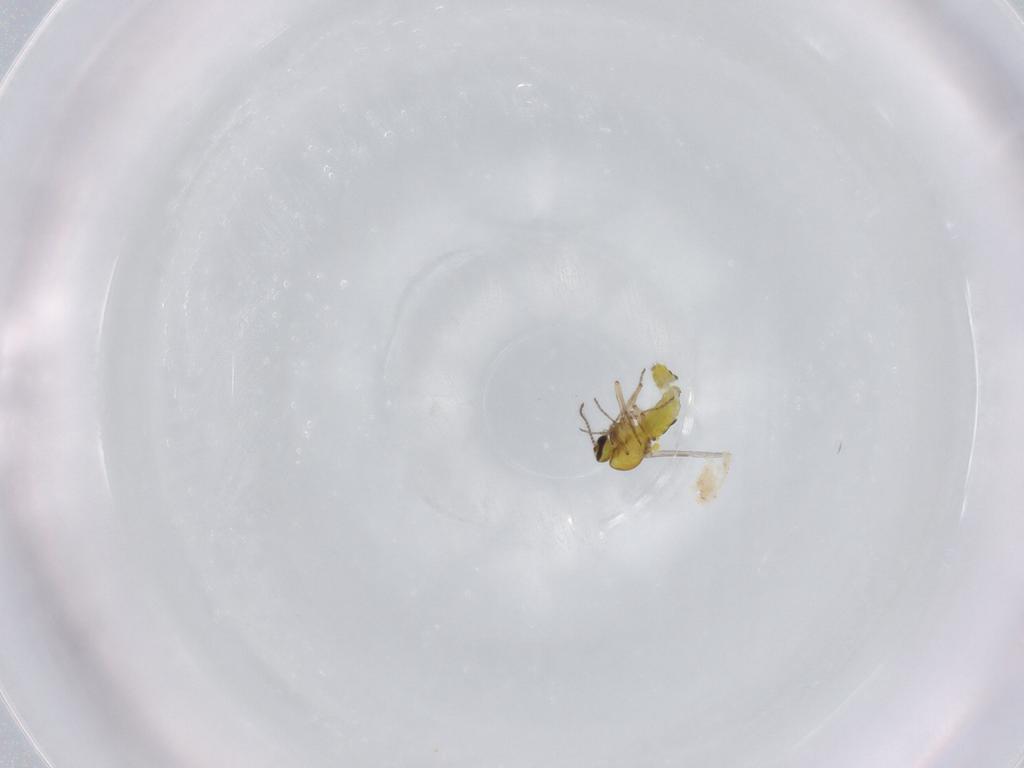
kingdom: Animalia
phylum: Arthropoda
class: Insecta
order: Diptera
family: Ceratopogonidae
